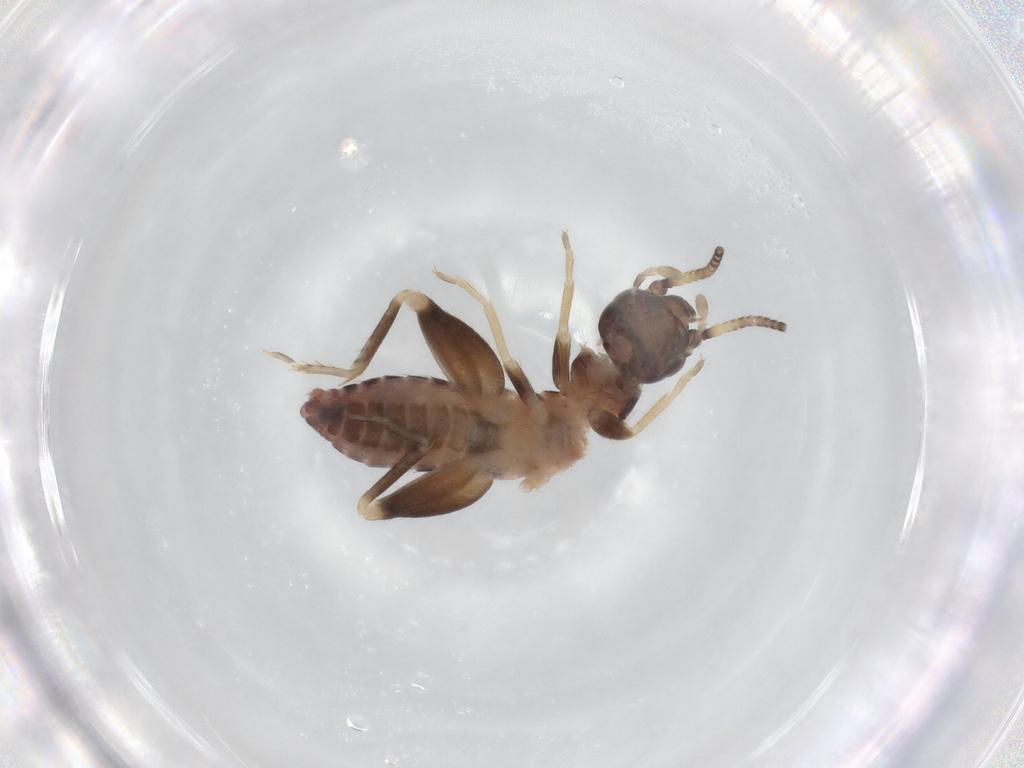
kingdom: Animalia
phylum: Arthropoda
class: Insecta
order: Orthoptera
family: Gryllidae
